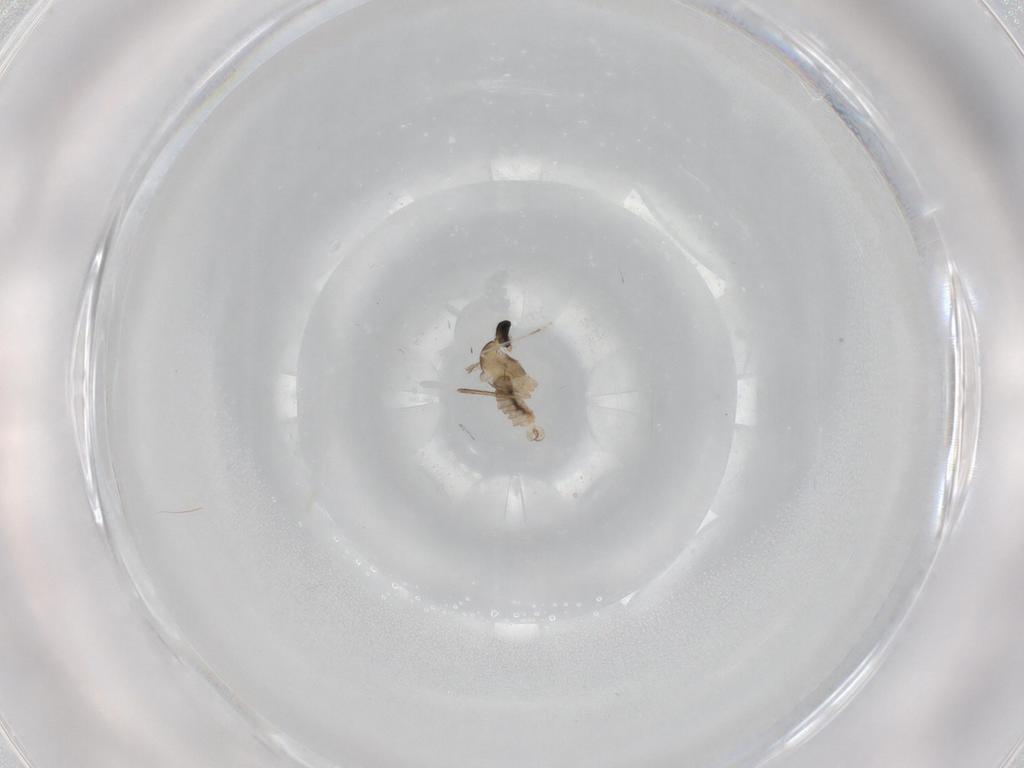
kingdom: Animalia
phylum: Arthropoda
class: Insecta
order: Diptera
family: Cecidomyiidae
